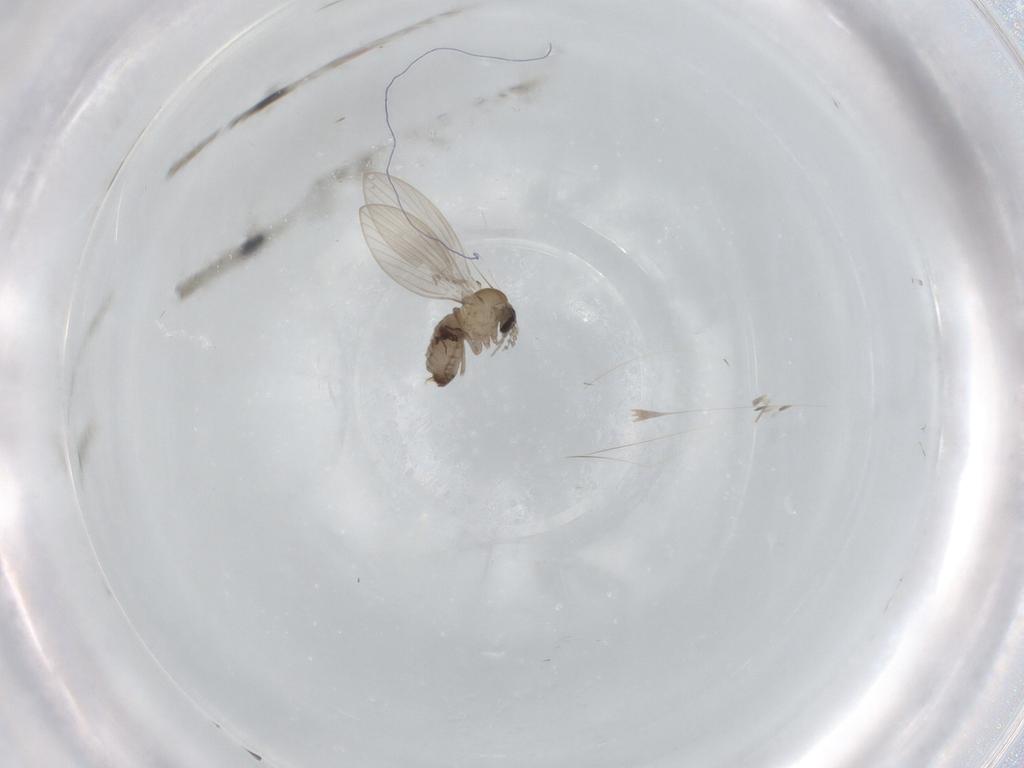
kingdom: Animalia
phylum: Arthropoda
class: Insecta
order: Diptera
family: Psychodidae
